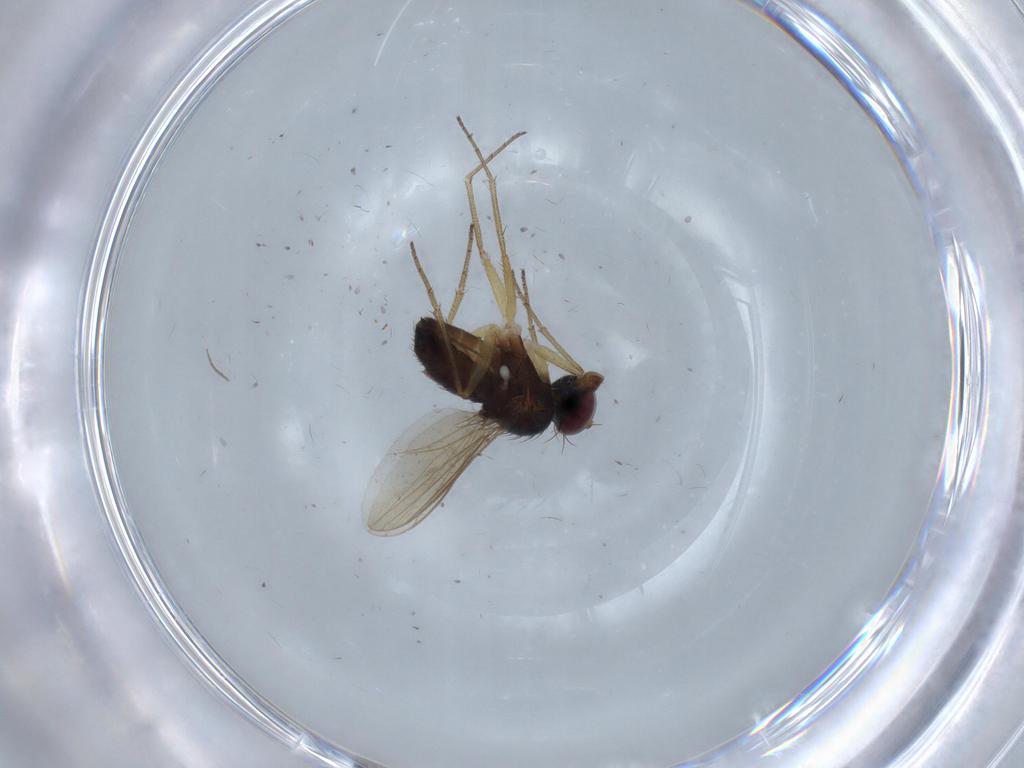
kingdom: Animalia
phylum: Arthropoda
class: Insecta
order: Diptera
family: Dolichopodidae
